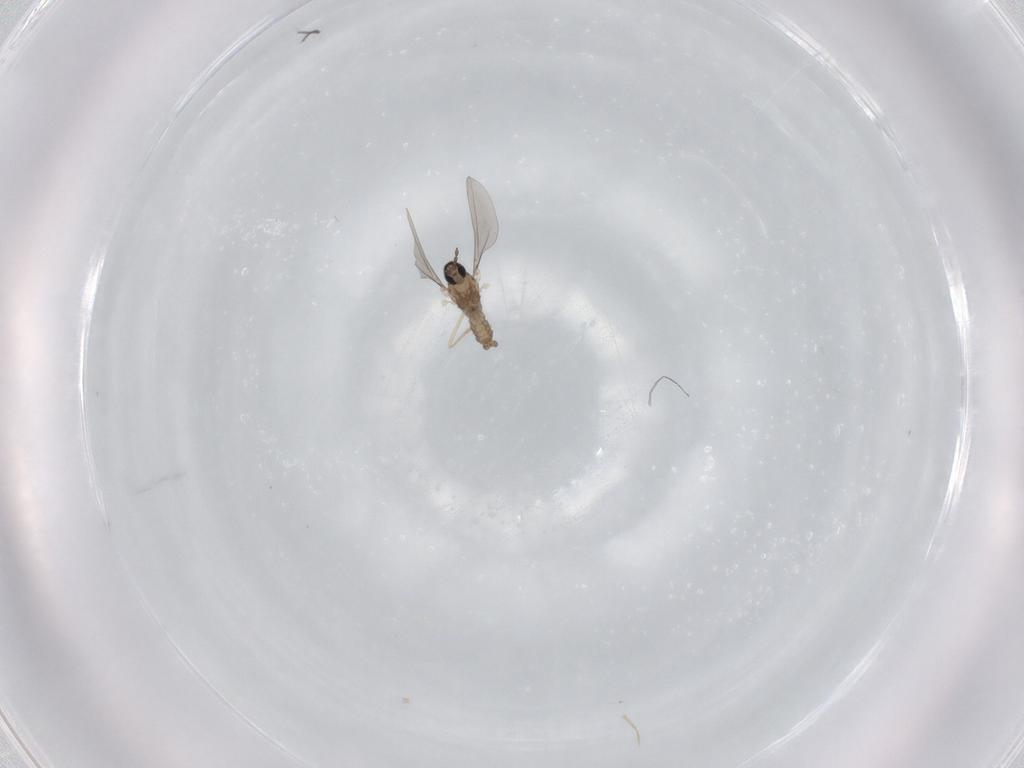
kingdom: Animalia
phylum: Arthropoda
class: Insecta
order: Diptera
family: Cecidomyiidae
